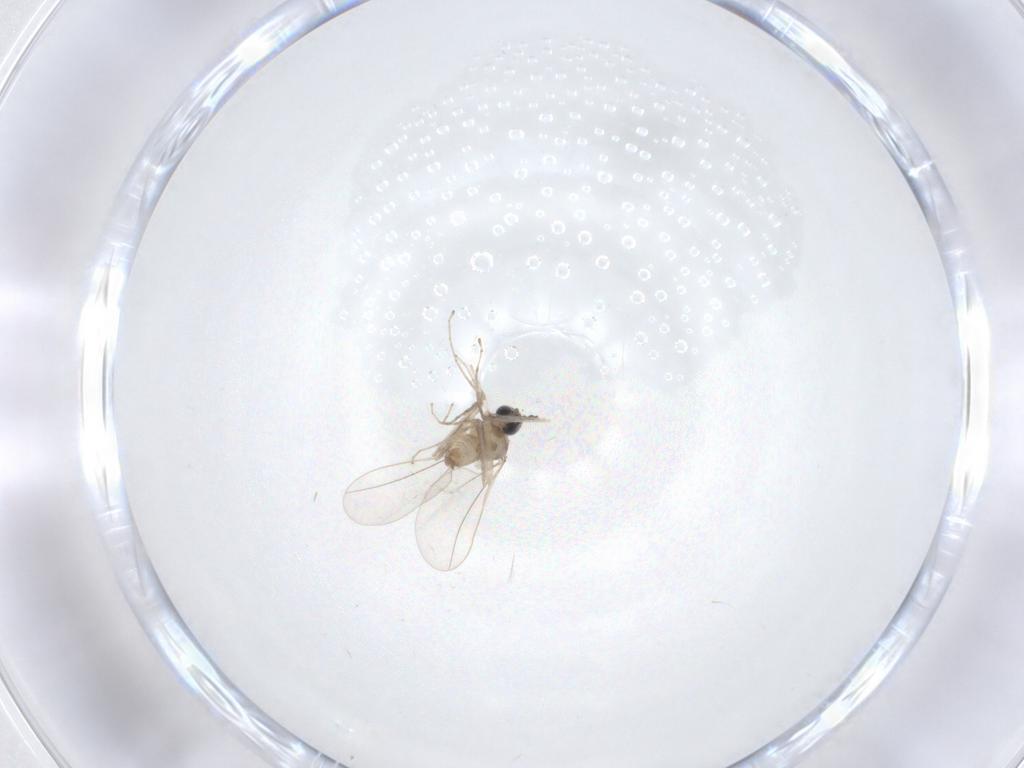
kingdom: Animalia
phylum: Arthropoda
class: Insecta
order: Diptera
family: Cecidomyiidae
